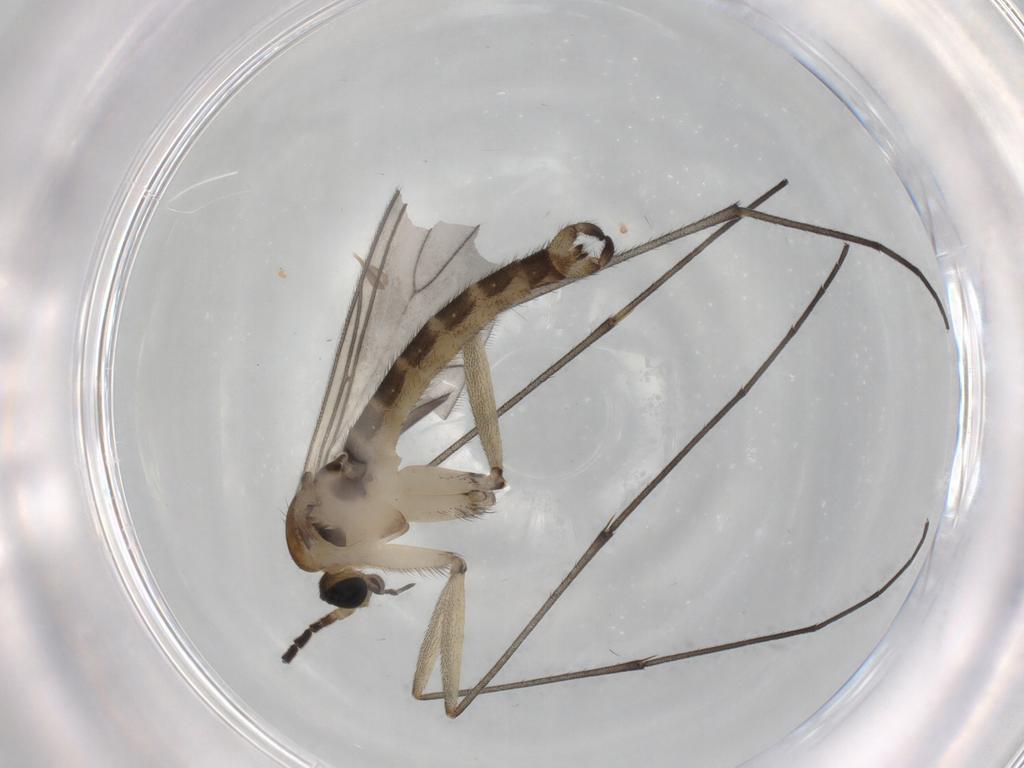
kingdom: Animalia
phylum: Arthropoda
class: Insecta
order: Diptera
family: Sciaridae
